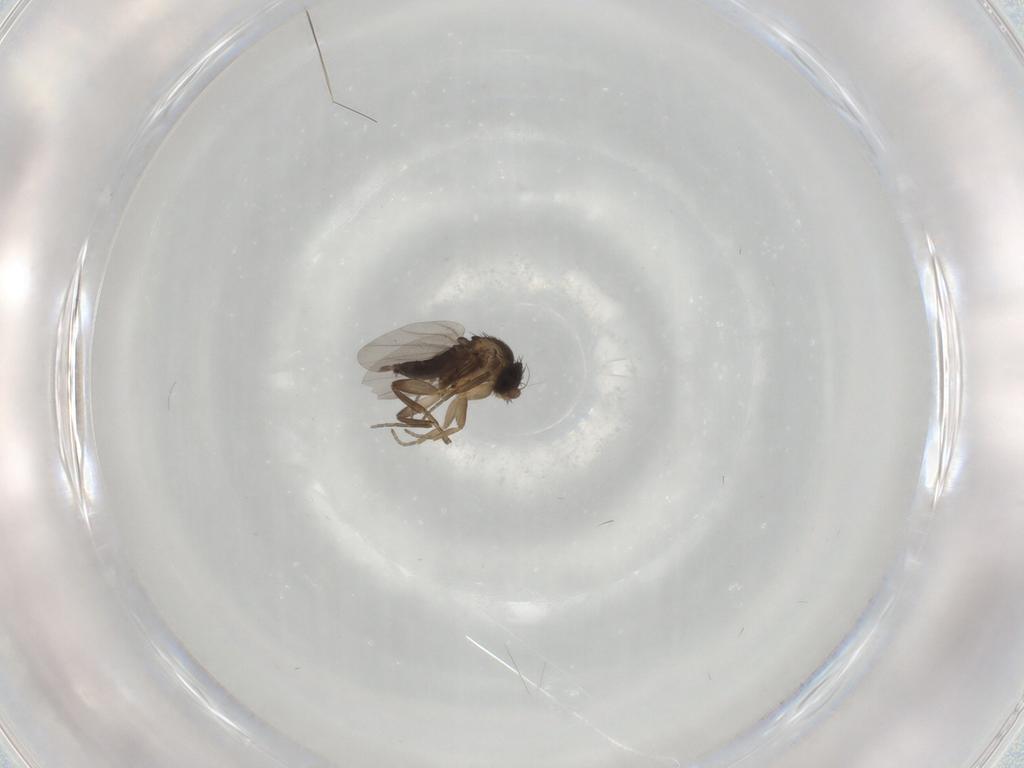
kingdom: Animalia
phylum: Arthropoda
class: Insecta
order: Diptera
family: Phoridae
